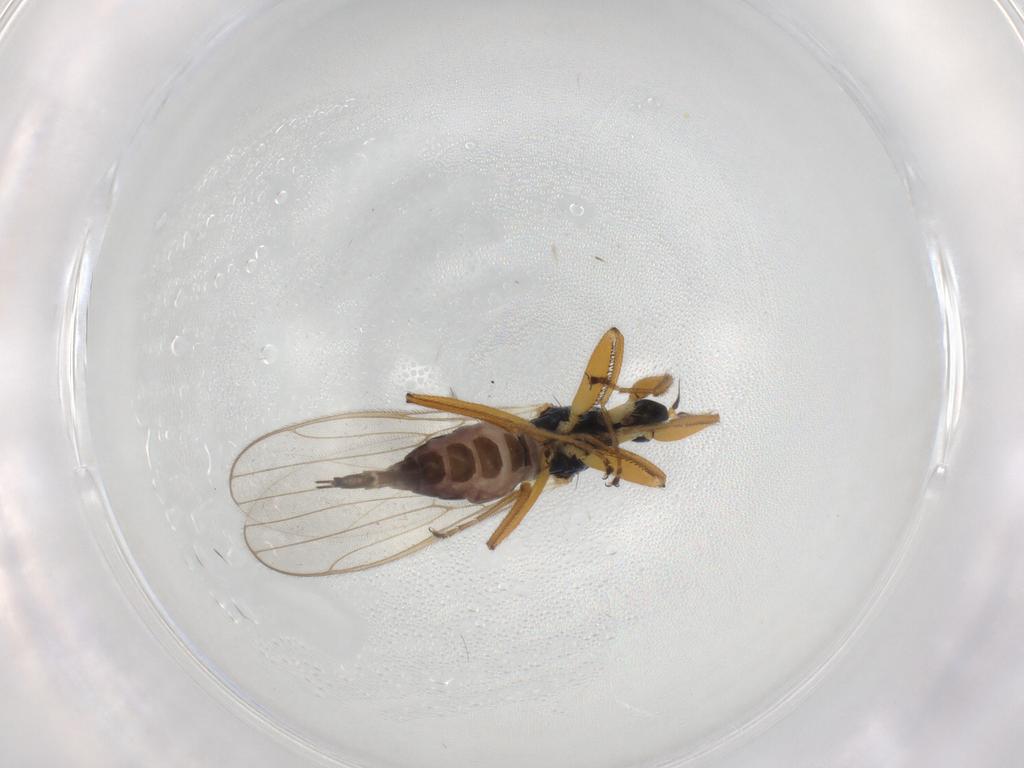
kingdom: Animalia
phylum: Arthropoda
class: Insecta
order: Diptera
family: Hybotidae
